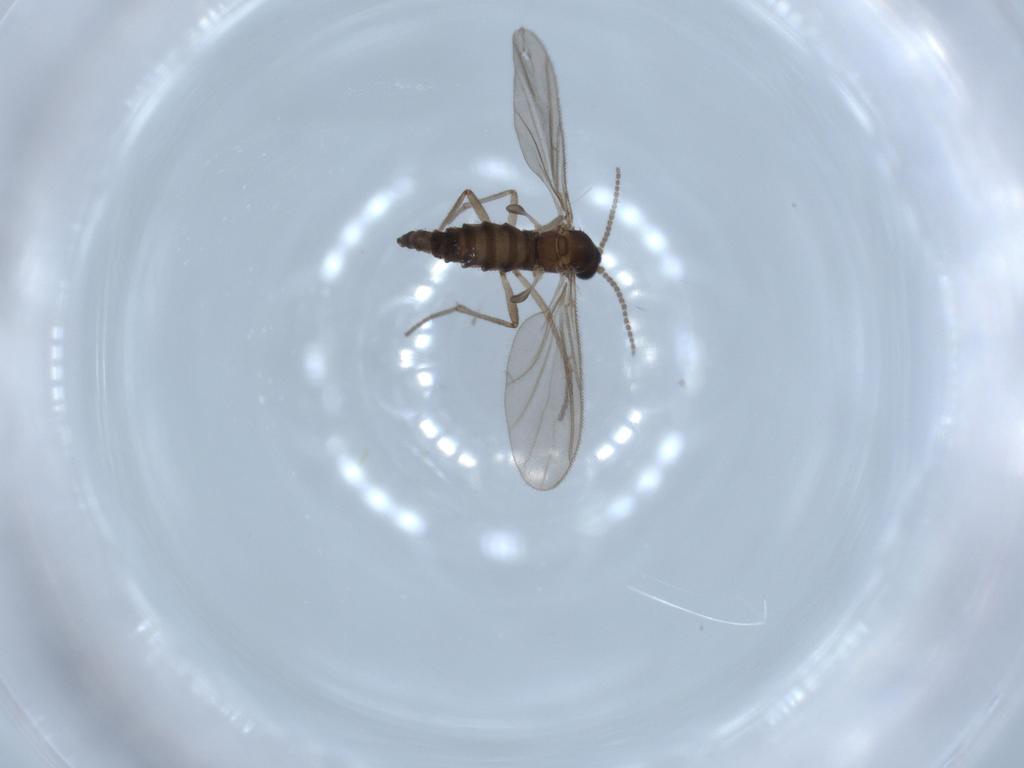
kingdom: Animalia
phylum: Arthropoda
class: Insecta
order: Diptera
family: Sciaridae
